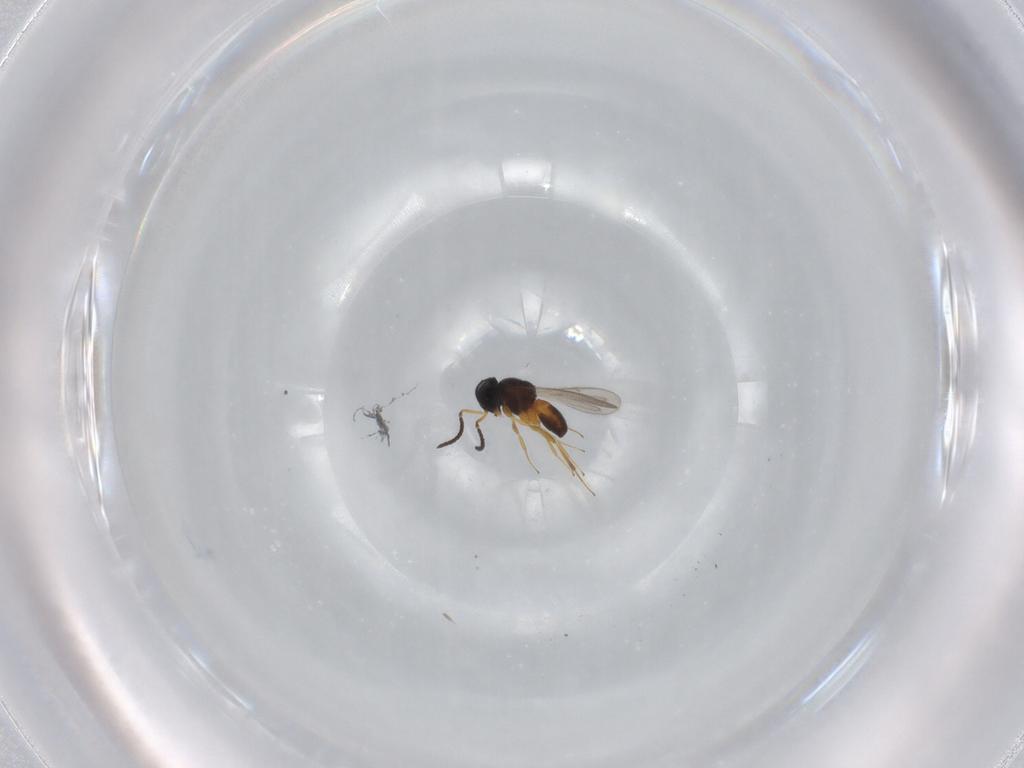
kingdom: Animalia
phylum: Arthropoda
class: Insecta
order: Hymenoptera
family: Scelionidae
